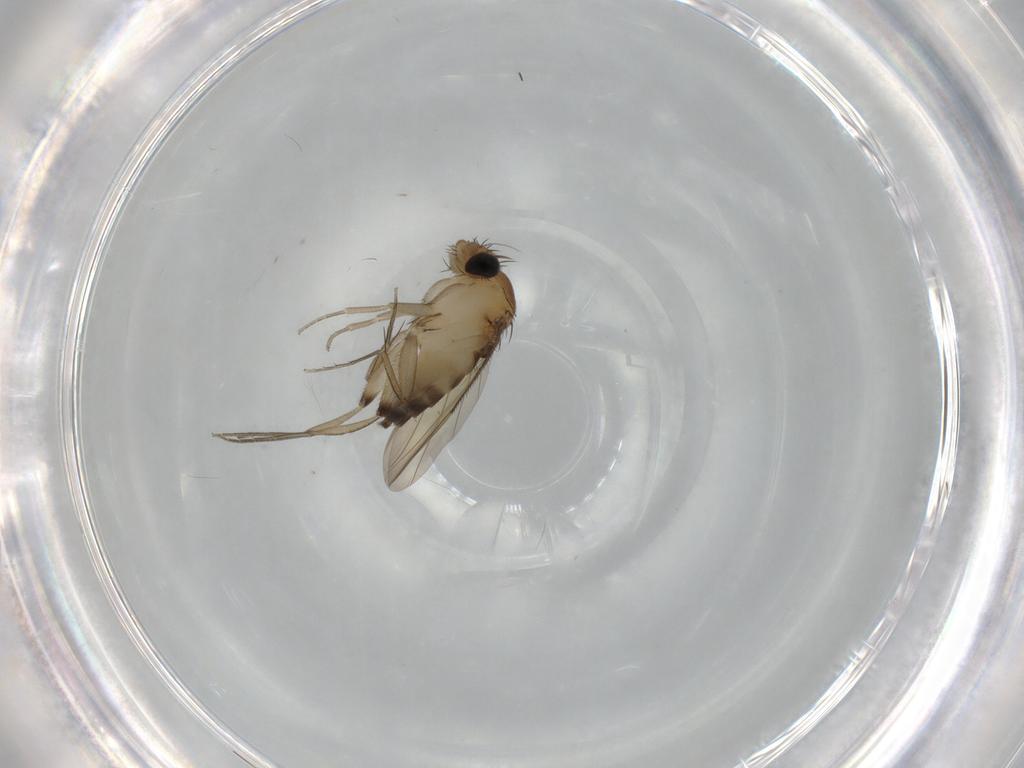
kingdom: Animalia
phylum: Arthropoda
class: Insecta
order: Diptera
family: Phoridae
